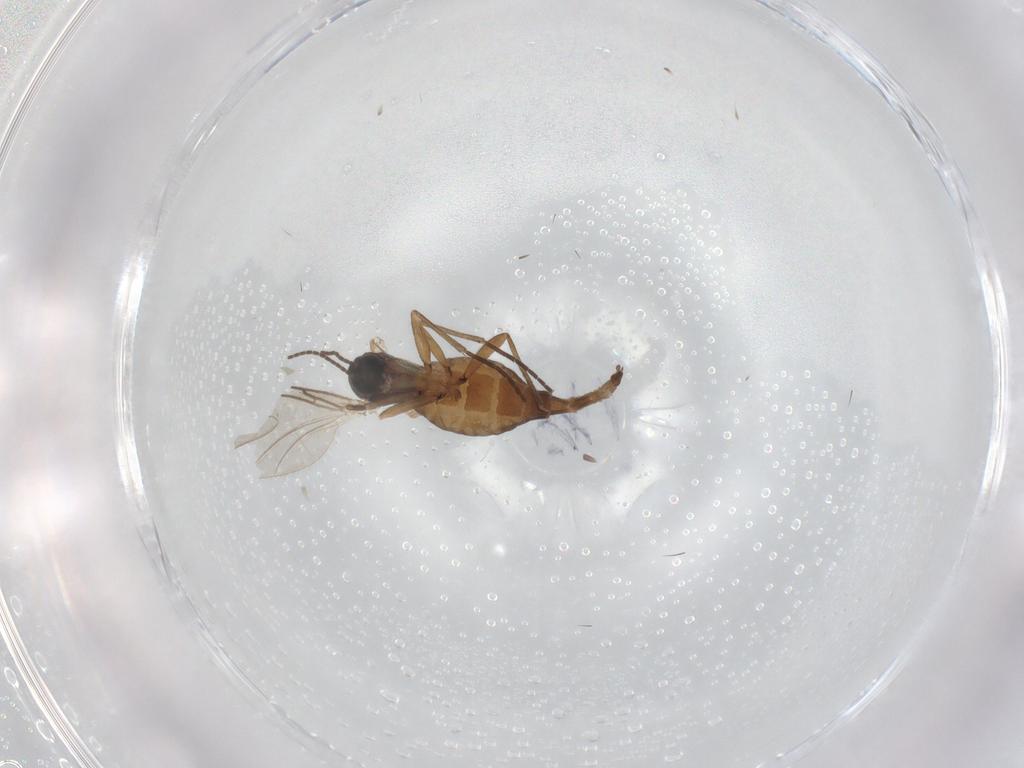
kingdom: Animalia
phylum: Arthropoda
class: Insecta
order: Diptera
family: Sciaridae
